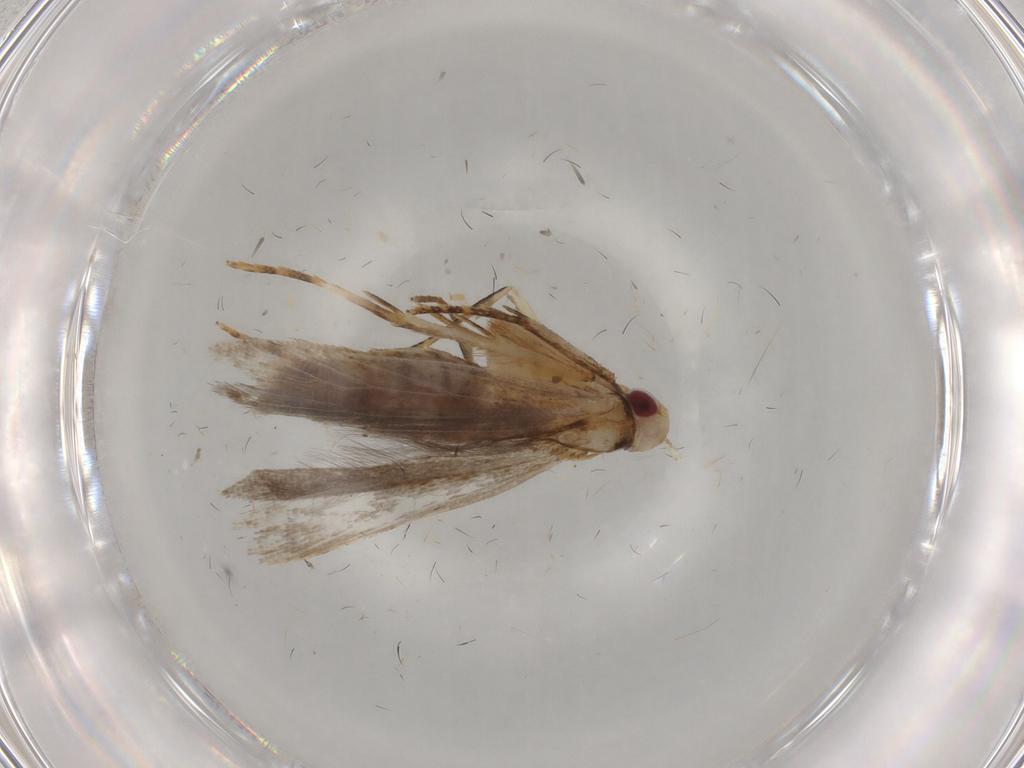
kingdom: Animalia
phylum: Arthropoda
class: Insecta
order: Lepidoptera
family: Gelechiidae
